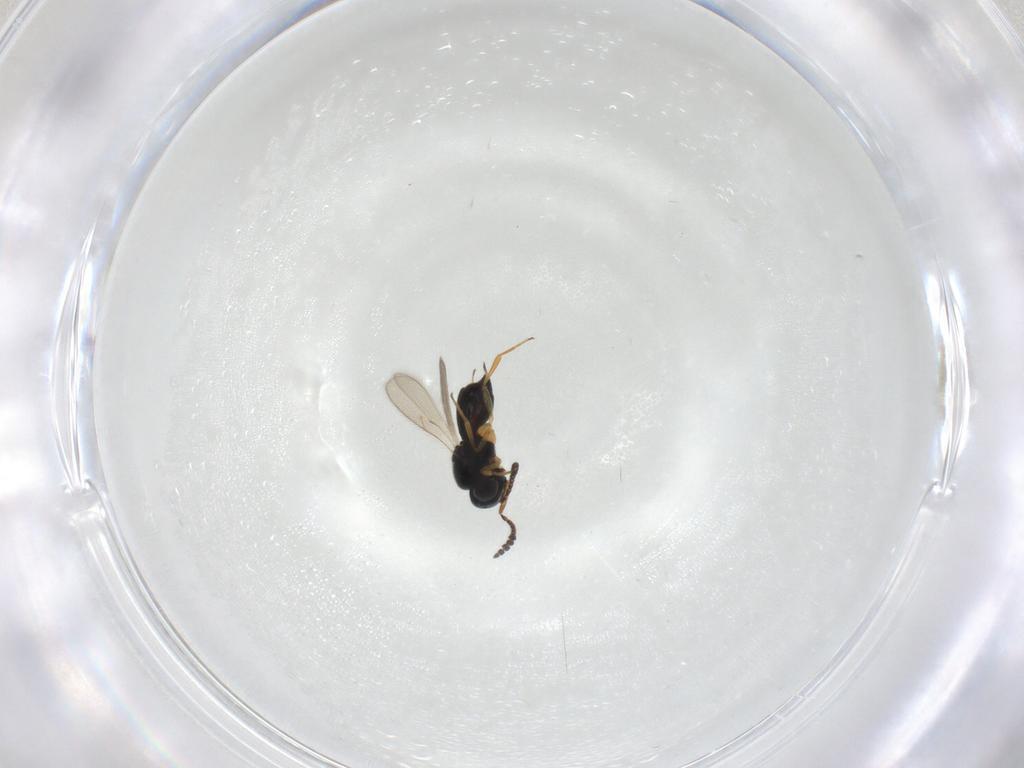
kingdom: Animalia
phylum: Arthropoda
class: Insecta
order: Hymenoptera
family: Scelionidae
